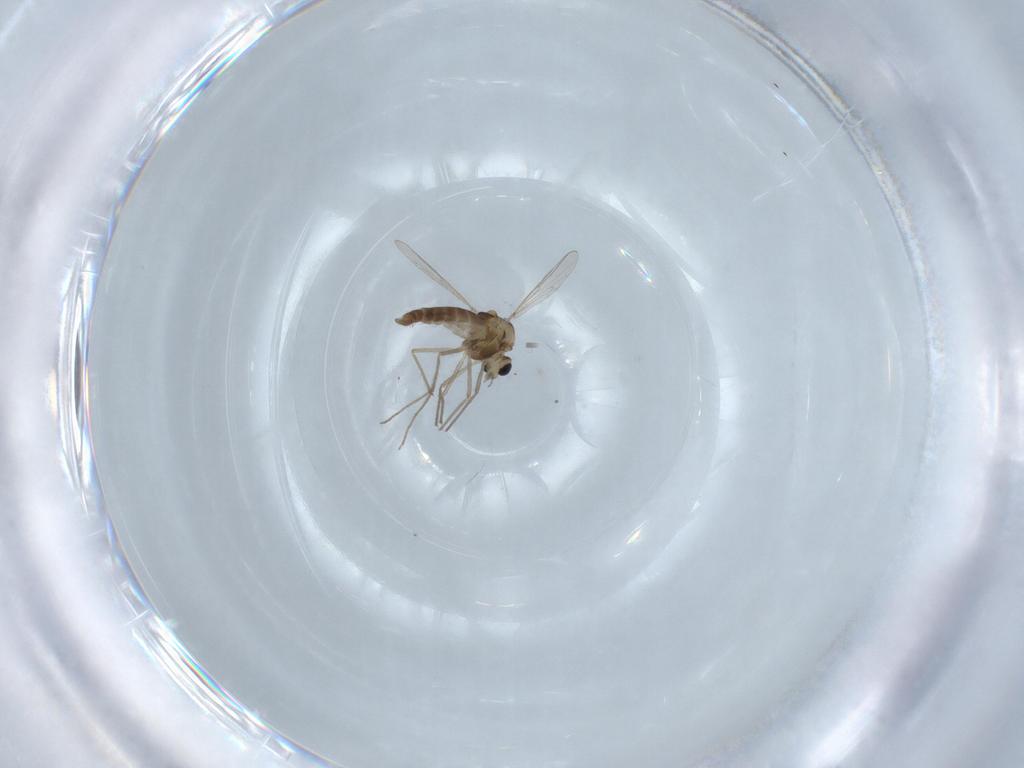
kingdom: Animalia
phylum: Arthropoda
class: Insecta
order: Diptera
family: Chironomidae
